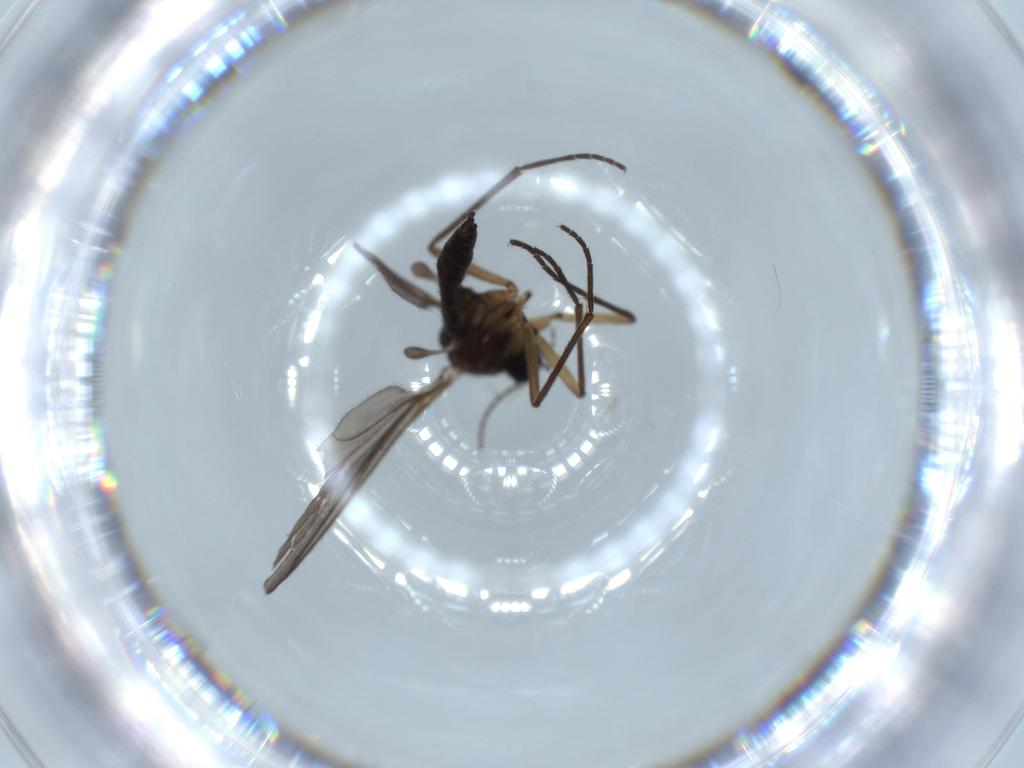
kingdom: Animalia
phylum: Arthropoda
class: Insecta
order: Diptera
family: Sciaridae
